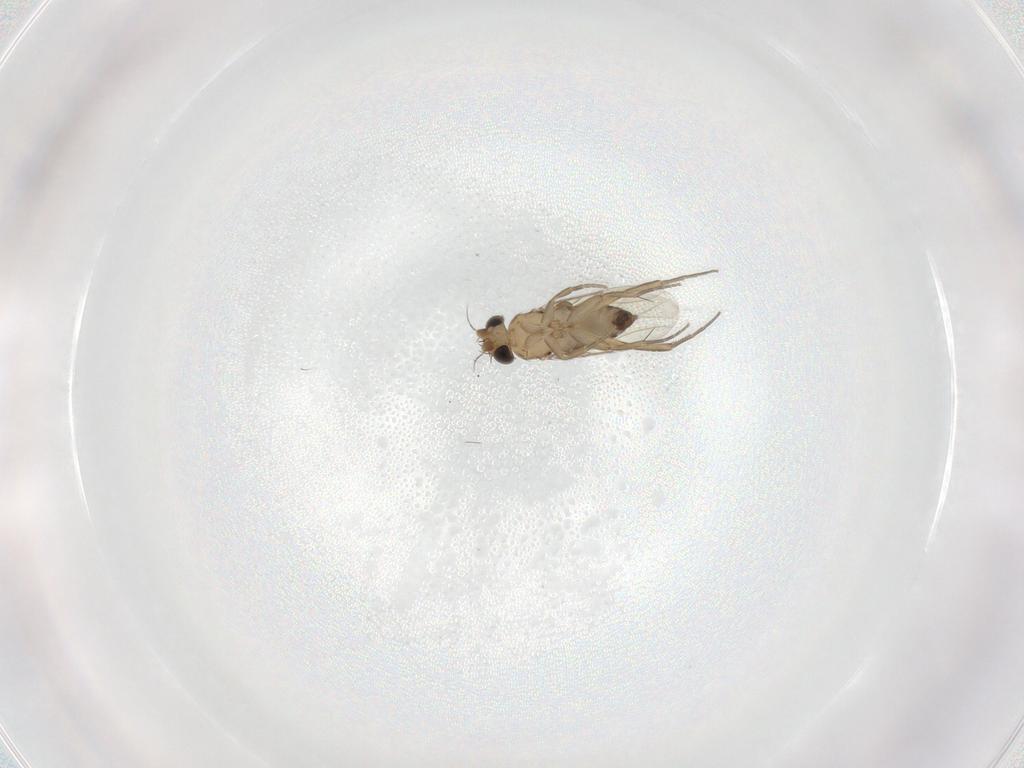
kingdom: Animalia
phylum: Arthropoda
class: Insecta
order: Diptera
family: Phoridae
